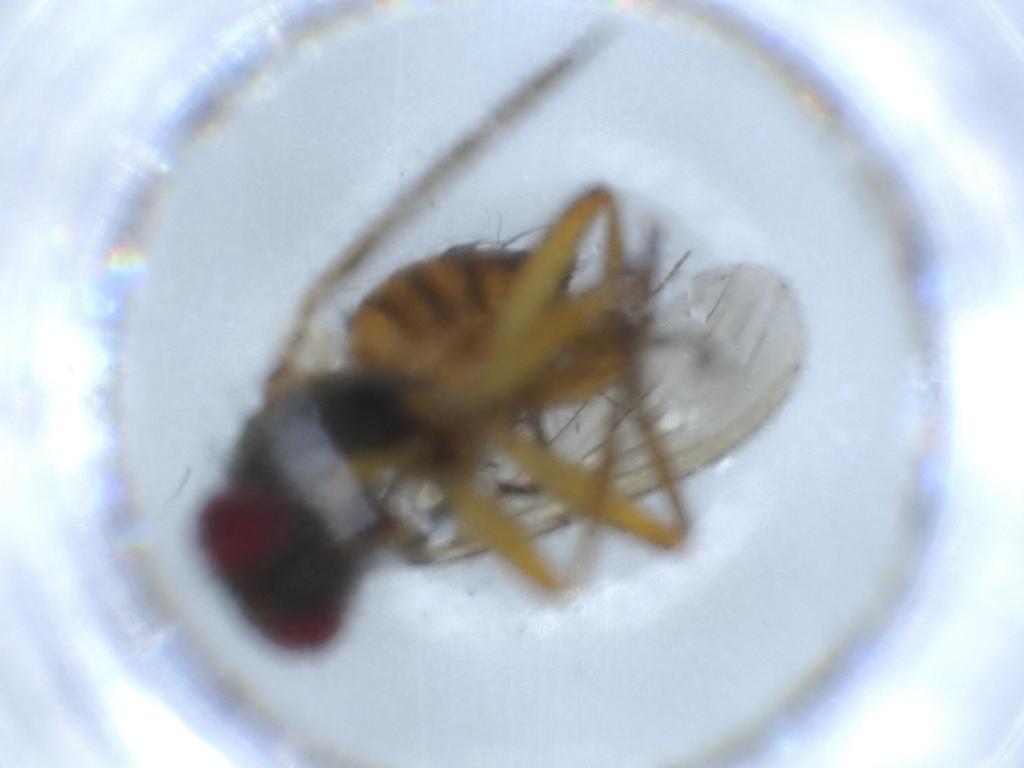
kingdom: Animalia
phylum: Arthropoda
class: Insecta
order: Diptera
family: Muscidae
